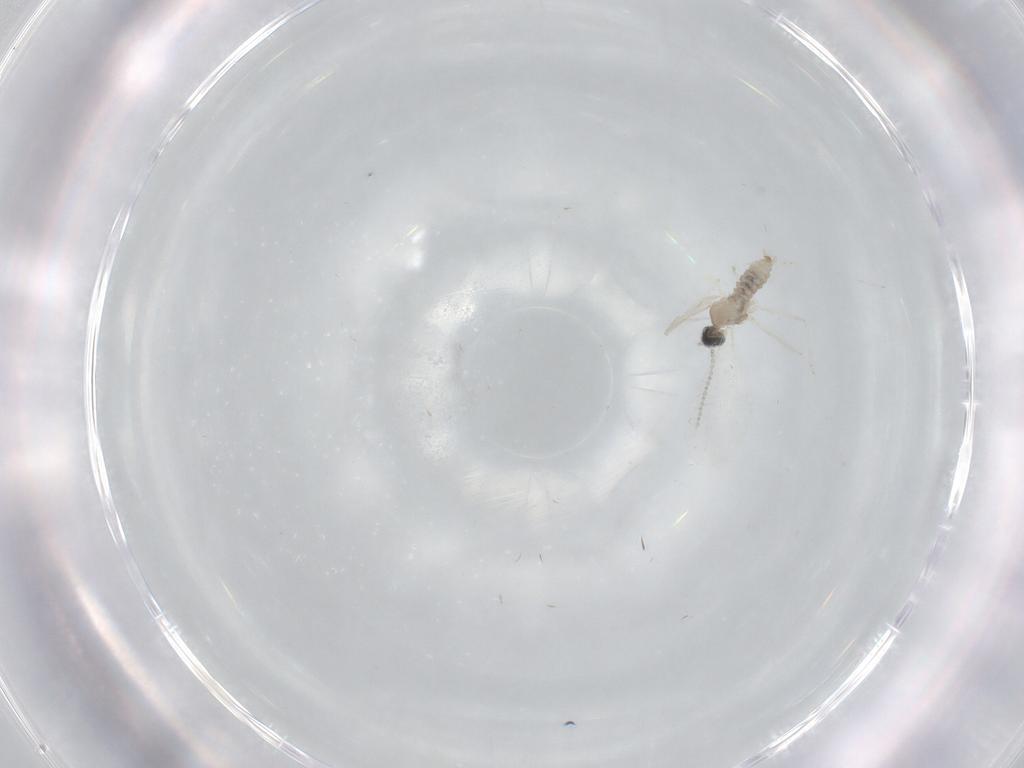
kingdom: Animalia
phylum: Arthropoda
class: Insecta
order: Diptera
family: Cecidomyiidae
